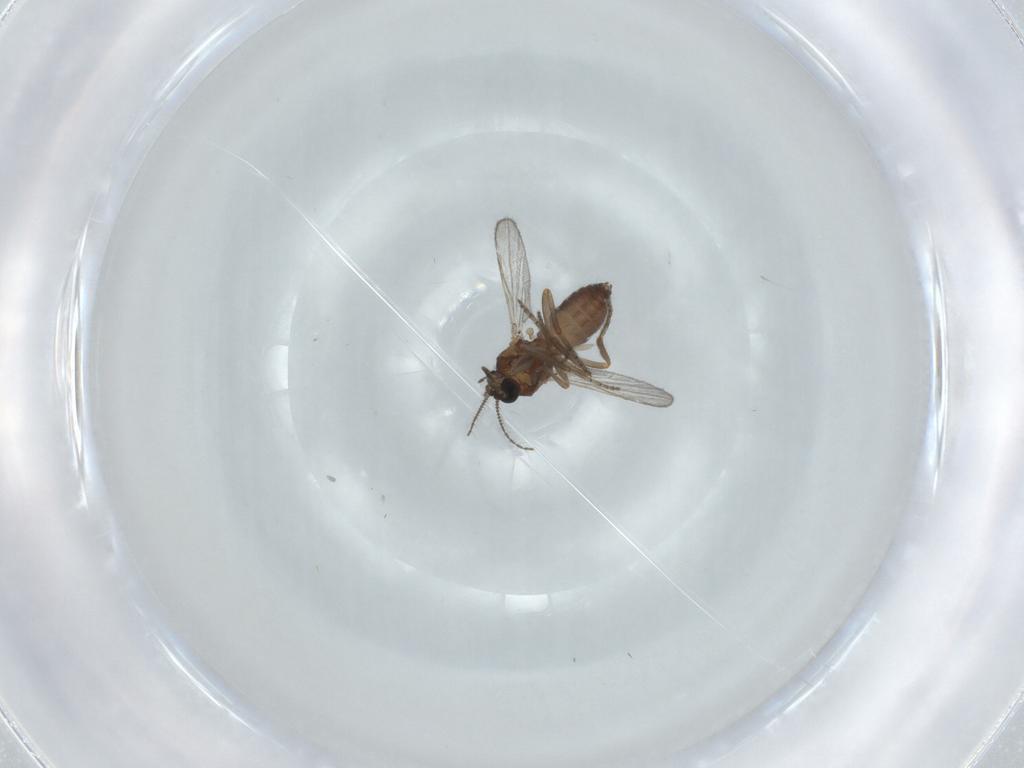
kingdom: Animalia
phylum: Arthropoda
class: Insecta
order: Diptera
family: Ceratopogonidae
